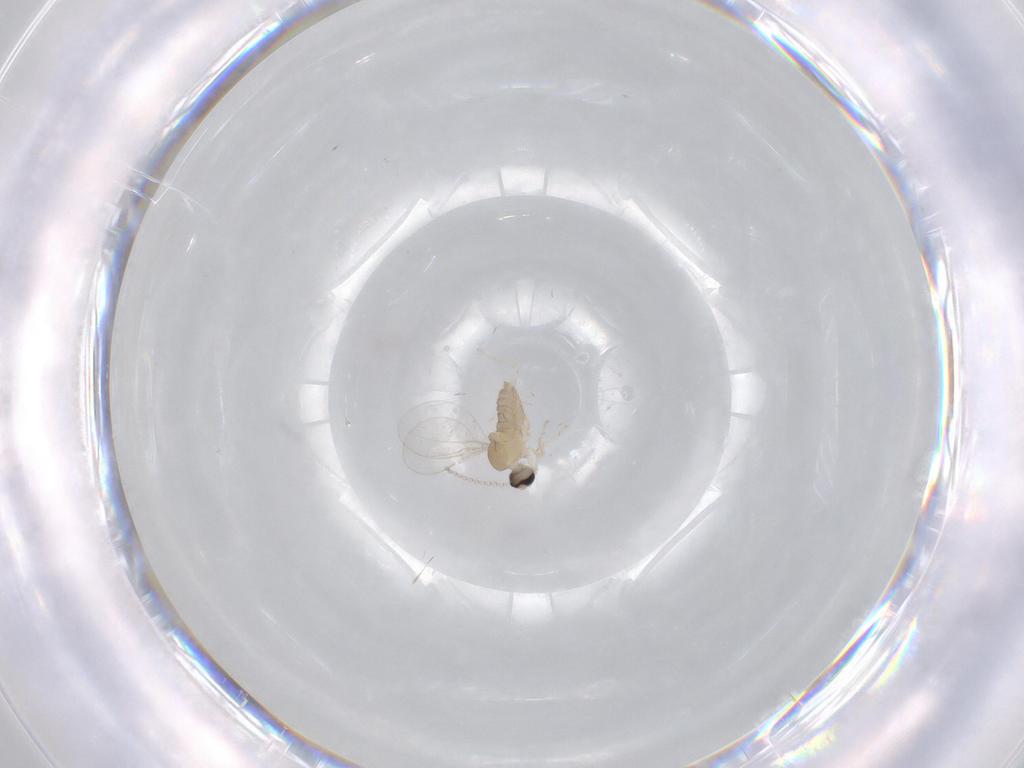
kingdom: Animalia
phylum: Arthropoda
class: Insecta
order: Diptera
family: Cecidomyiidae
